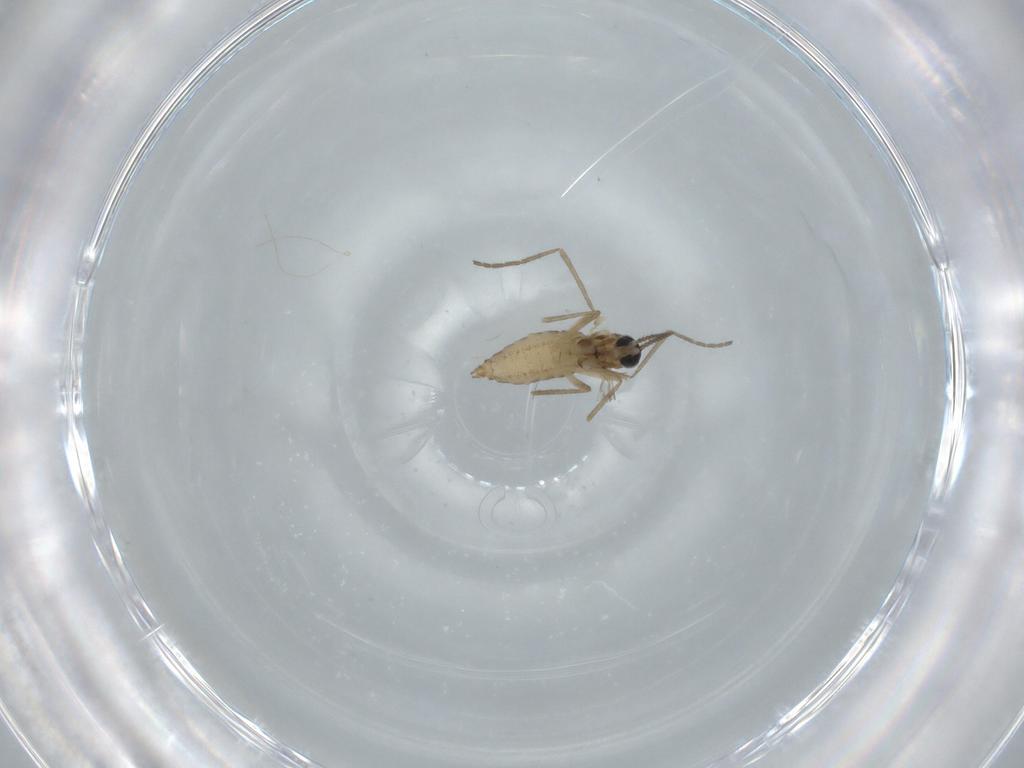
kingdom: Animalia
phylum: Arthropoda
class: Insecta
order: Diptera
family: Cecidomyiidae
